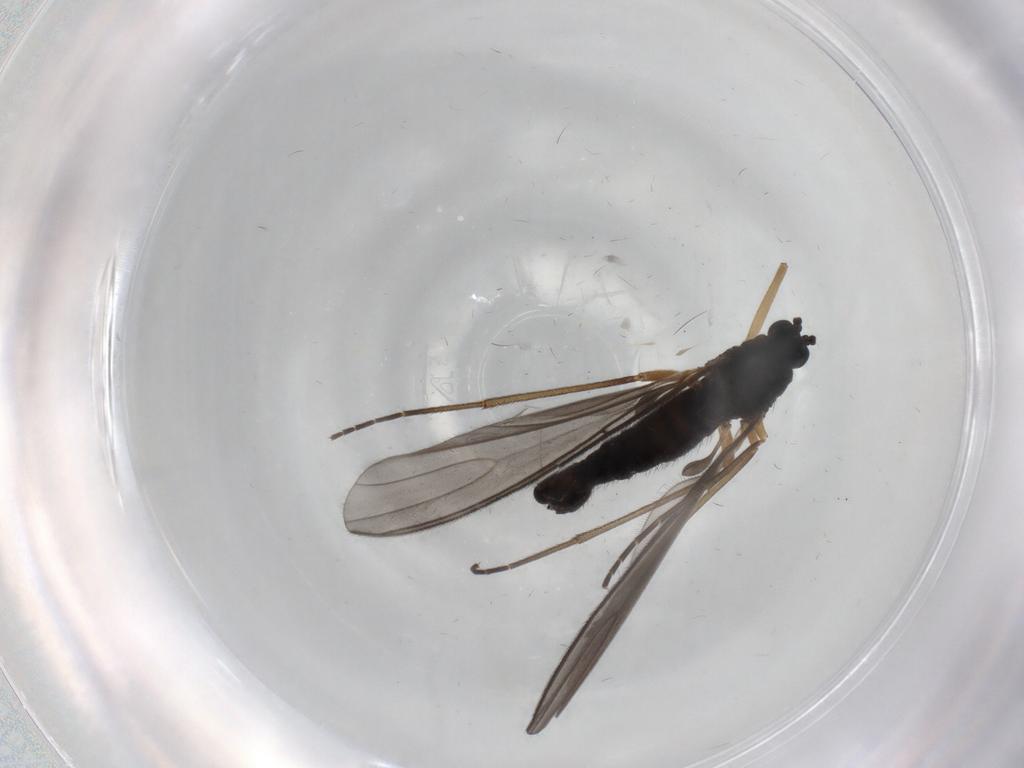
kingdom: Animalia
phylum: Arthropoda
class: Insecta
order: Diptera
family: Sciaridae
